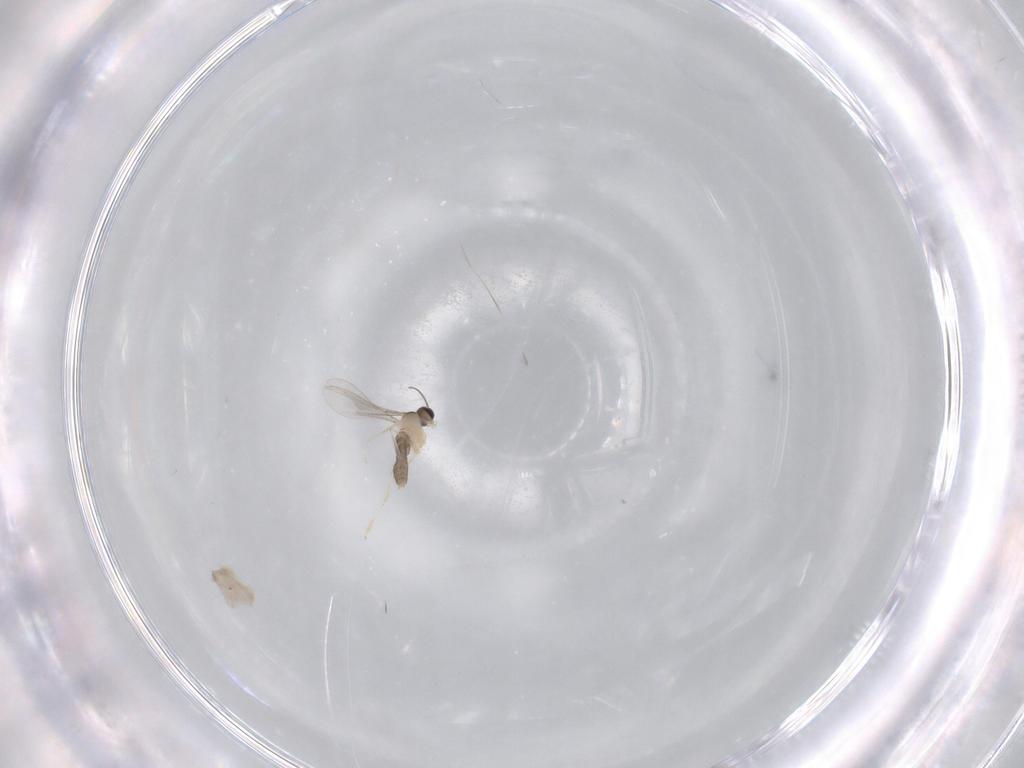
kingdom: Animalia
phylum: Arthropoda
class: Insecta
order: Diptera
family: Cecidomyiidae
